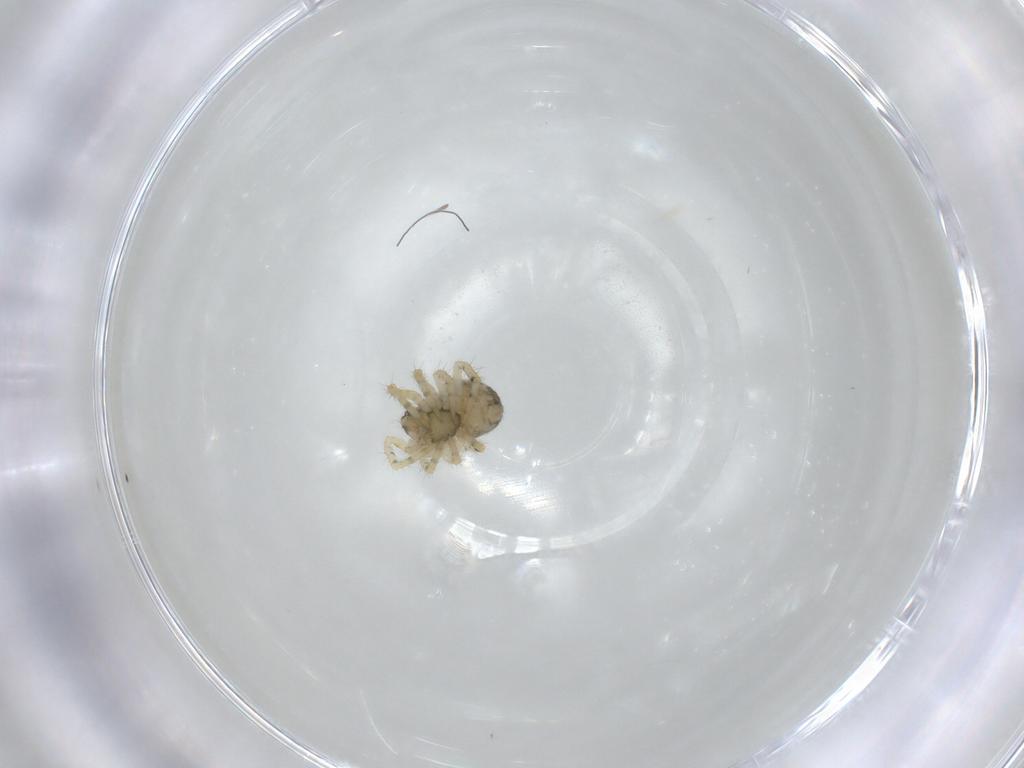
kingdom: Animalia
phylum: Arthropoda
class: Arachnida
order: Araneae
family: Theridiidae
